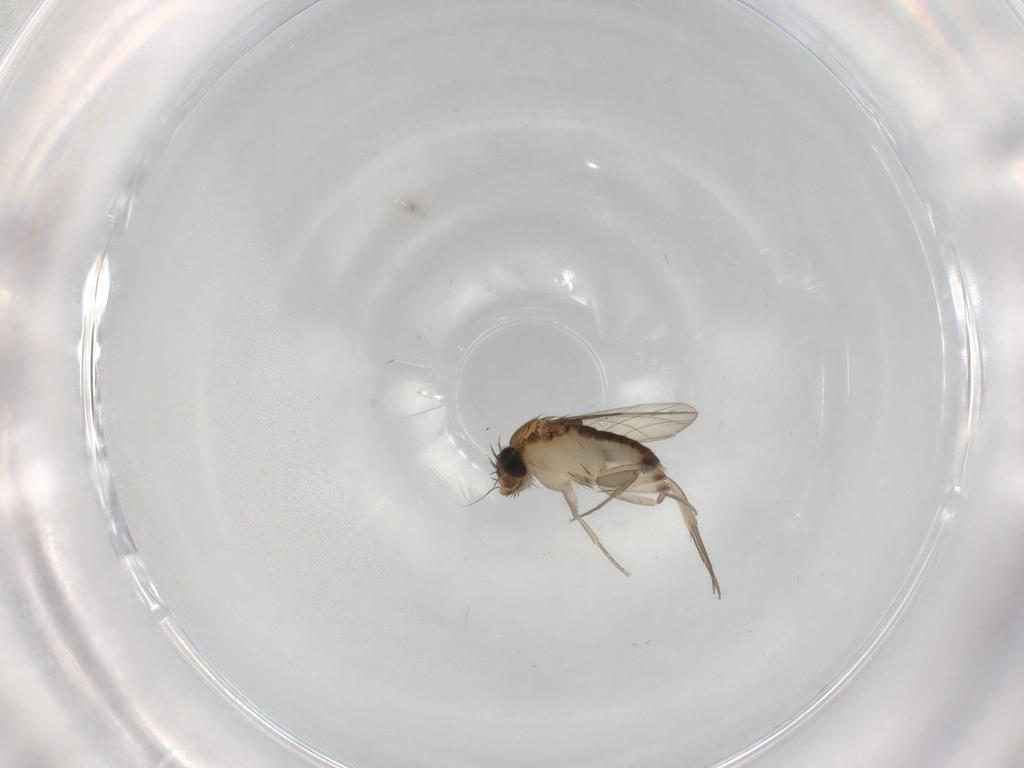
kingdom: Animalia
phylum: Arthropoda
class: Insecta
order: Diptera
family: Phoridae
